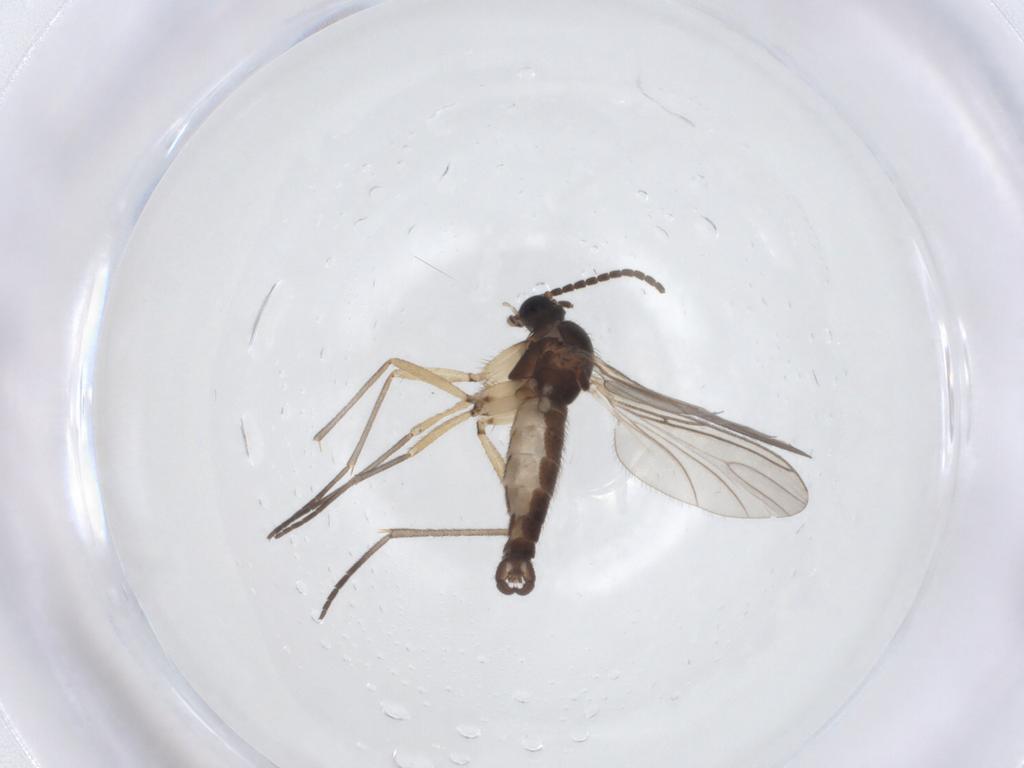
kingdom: Animalia
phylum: Arthropoda
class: Insecta
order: Diptera
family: Sciaridae
